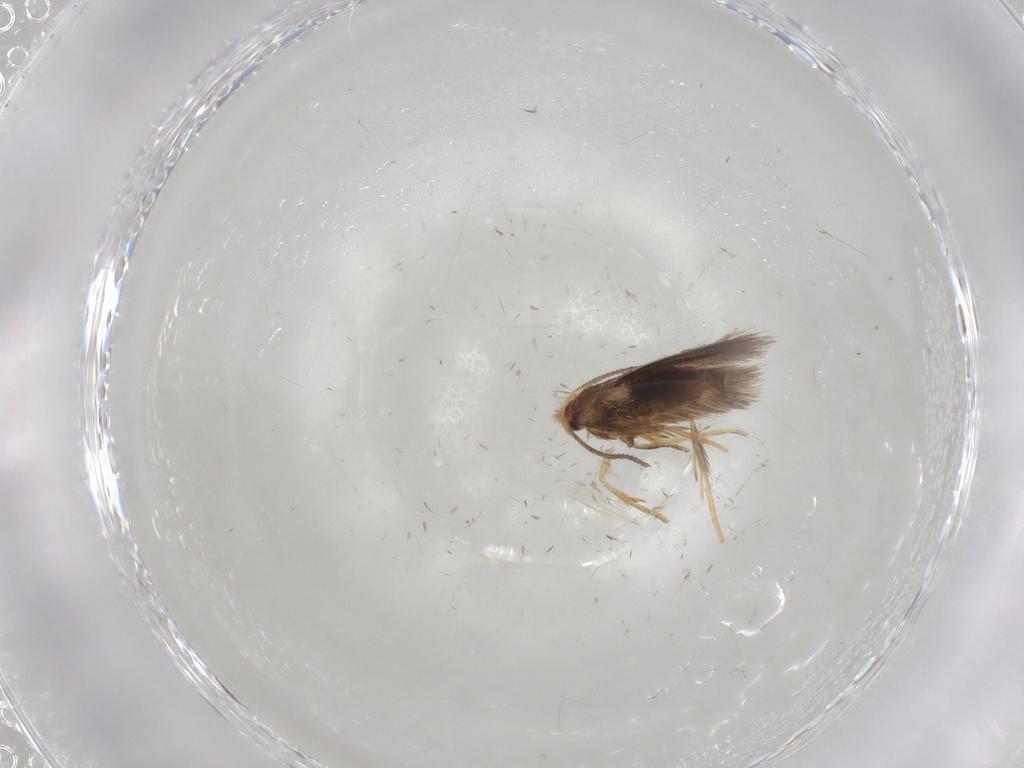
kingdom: Animalia
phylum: Arthropoda
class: Insecta
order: Lepidoptera
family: Nepticulidae
